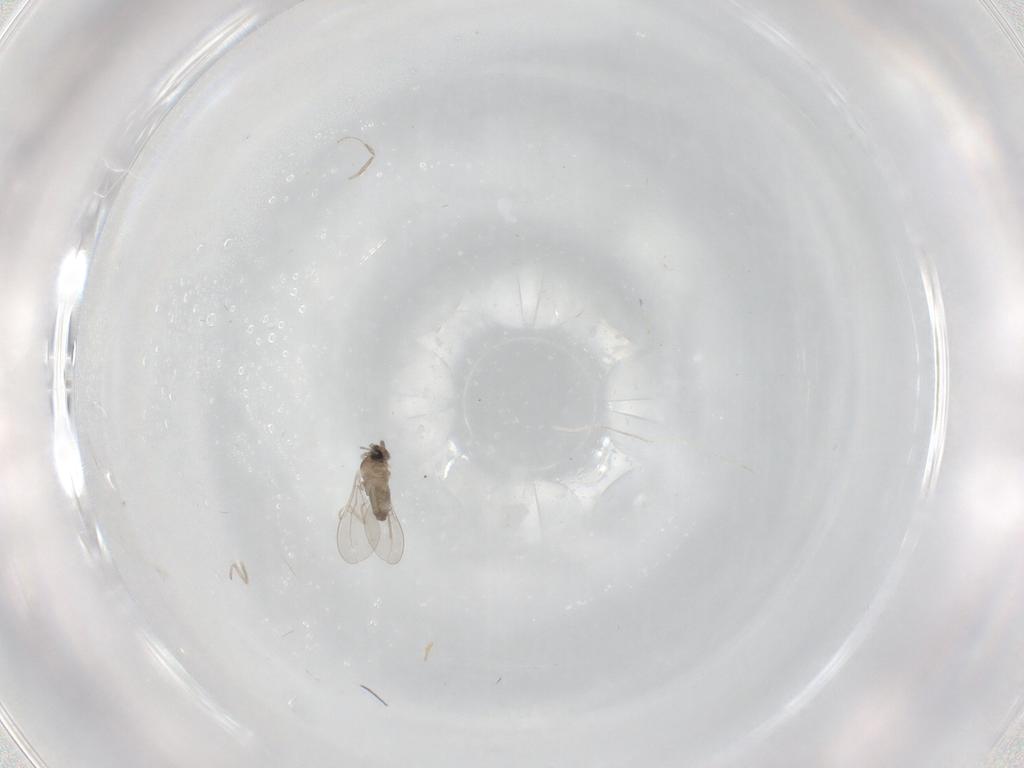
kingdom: Animalia
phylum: Arthropoda
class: Insecta
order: Diptera
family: Cecidomyiidae
